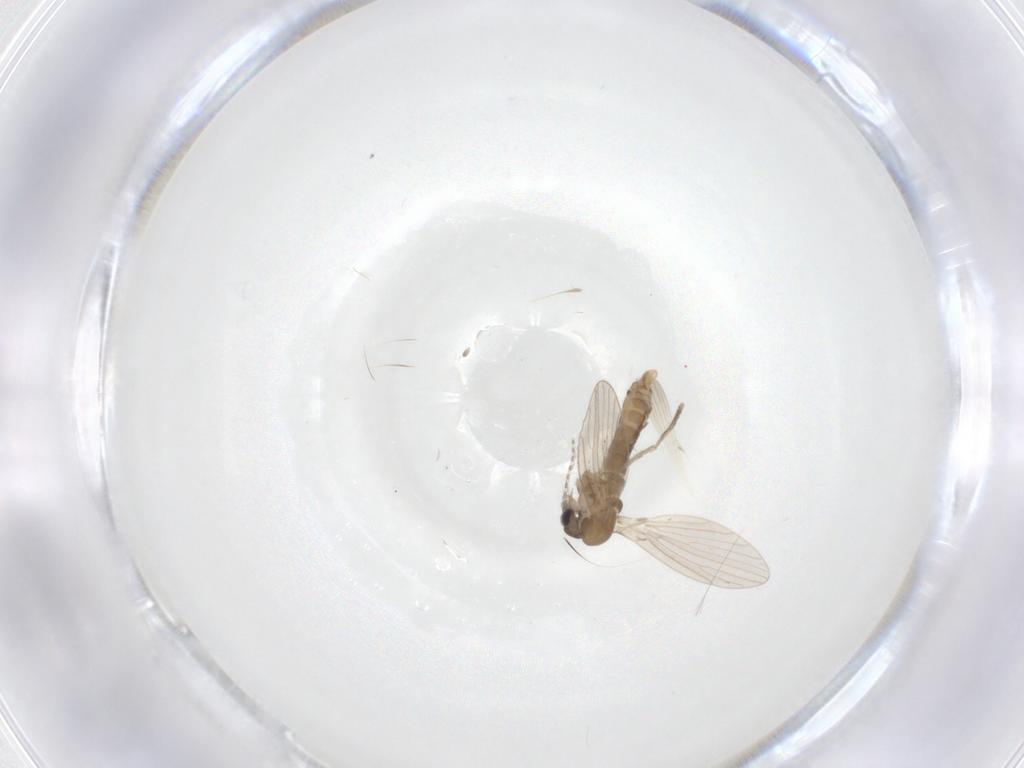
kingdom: Animalia
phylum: Arthropoda
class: Insecta
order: Diptera
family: Psychodidae
